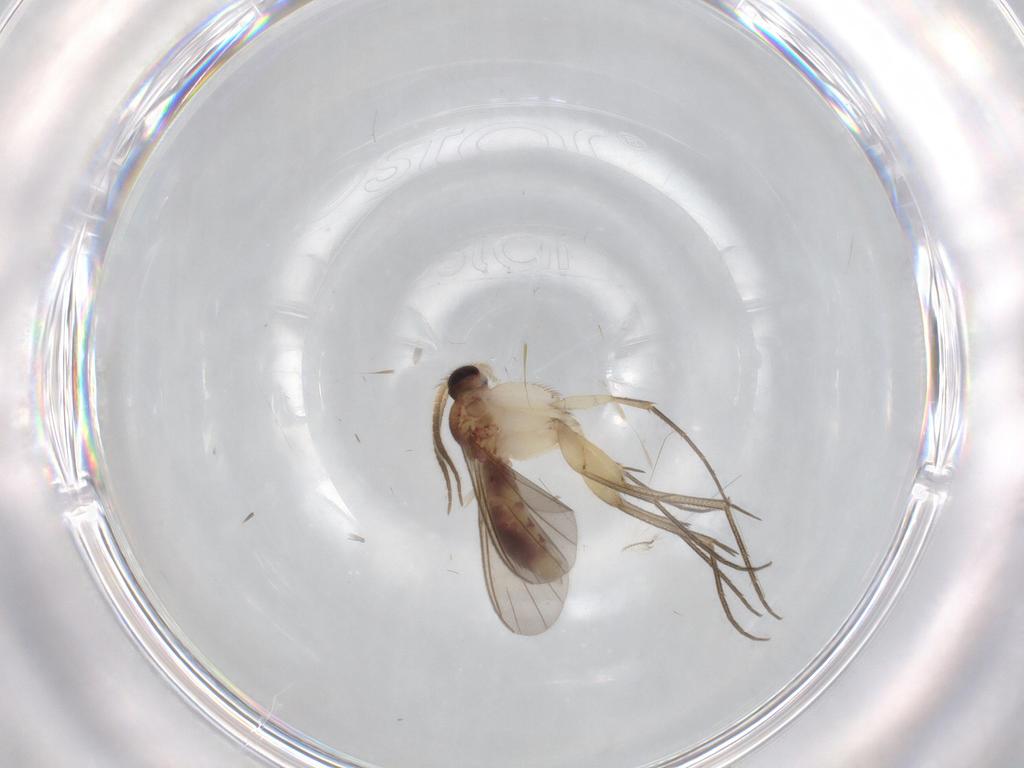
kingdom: Animalia
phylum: Arthropoda
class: Insecta
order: Diptera
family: Mycetophilidae
